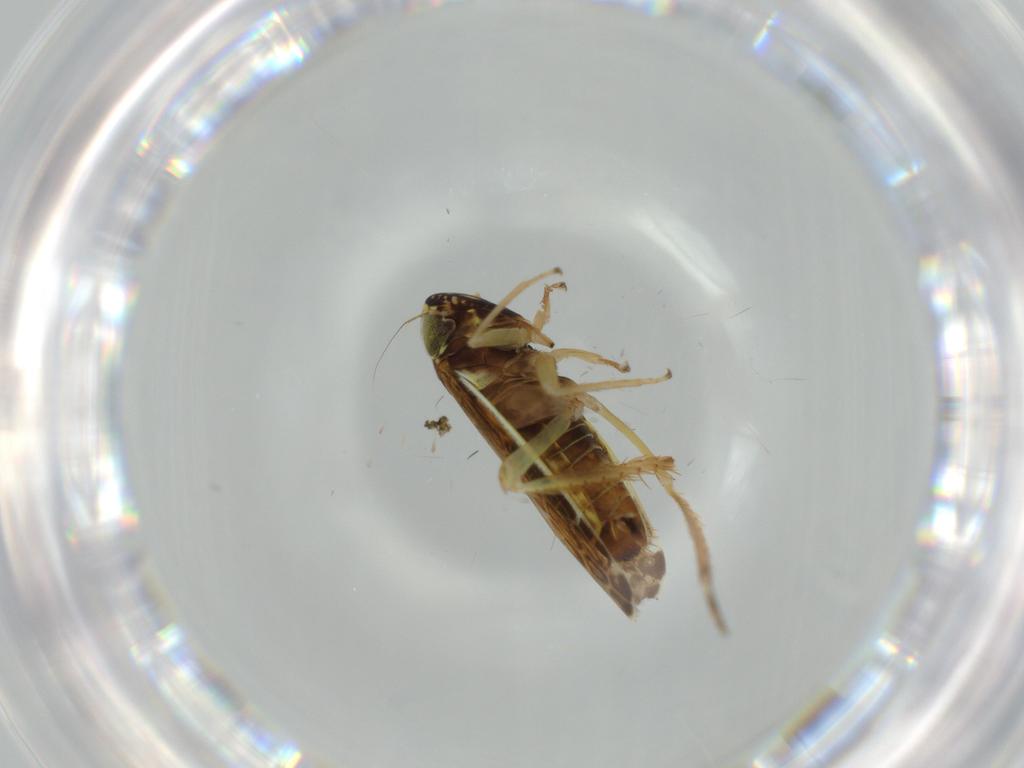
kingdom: Animalia
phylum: Arthropoda
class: Insecta
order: Hemiptera
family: Cicadellidae
